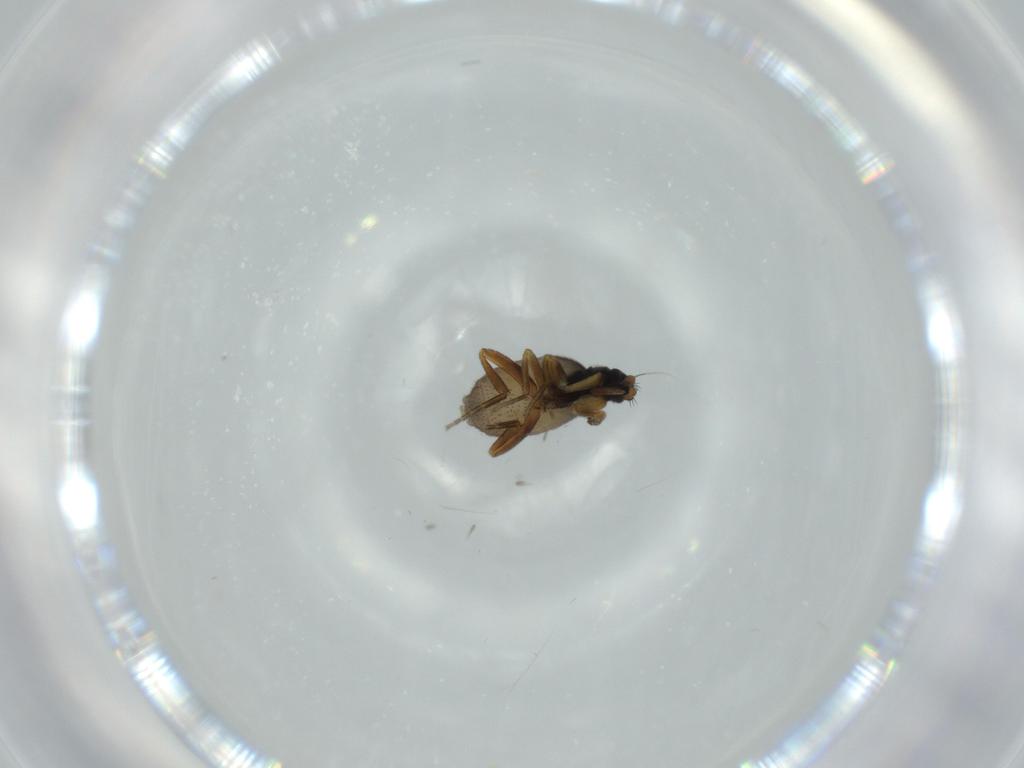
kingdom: Animalia
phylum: Arthropoda
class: Insecta
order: Diptera
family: Phoridae
